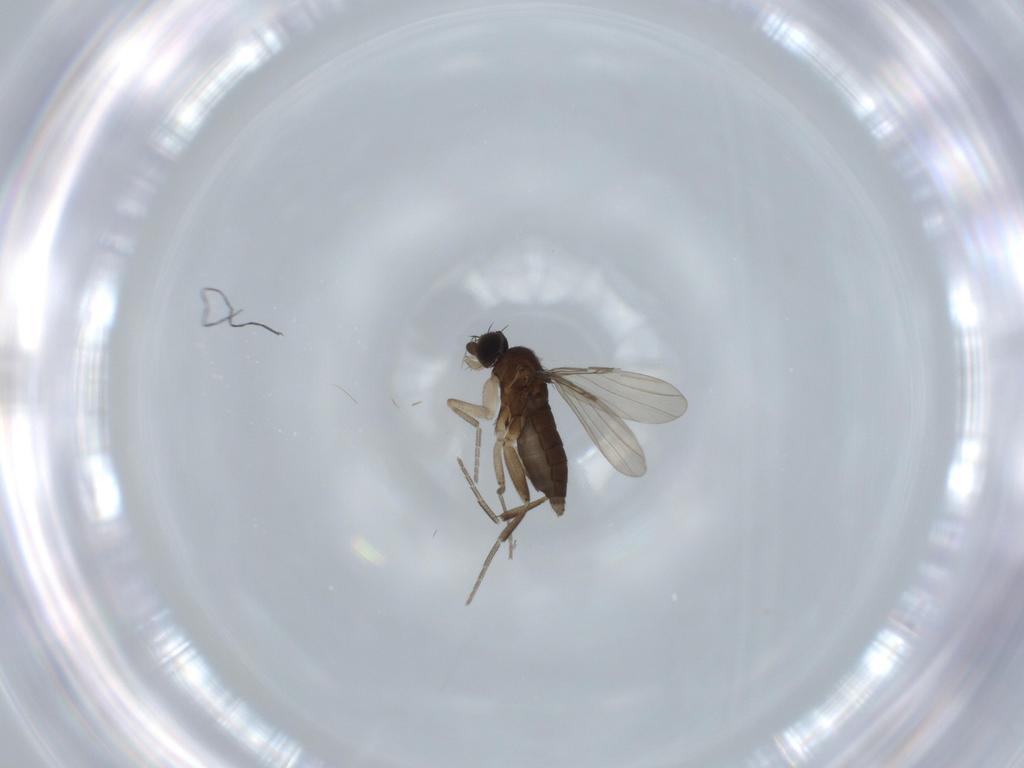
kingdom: Animalia
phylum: Arthropoda
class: Insecta
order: Diptera
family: Phoridae
